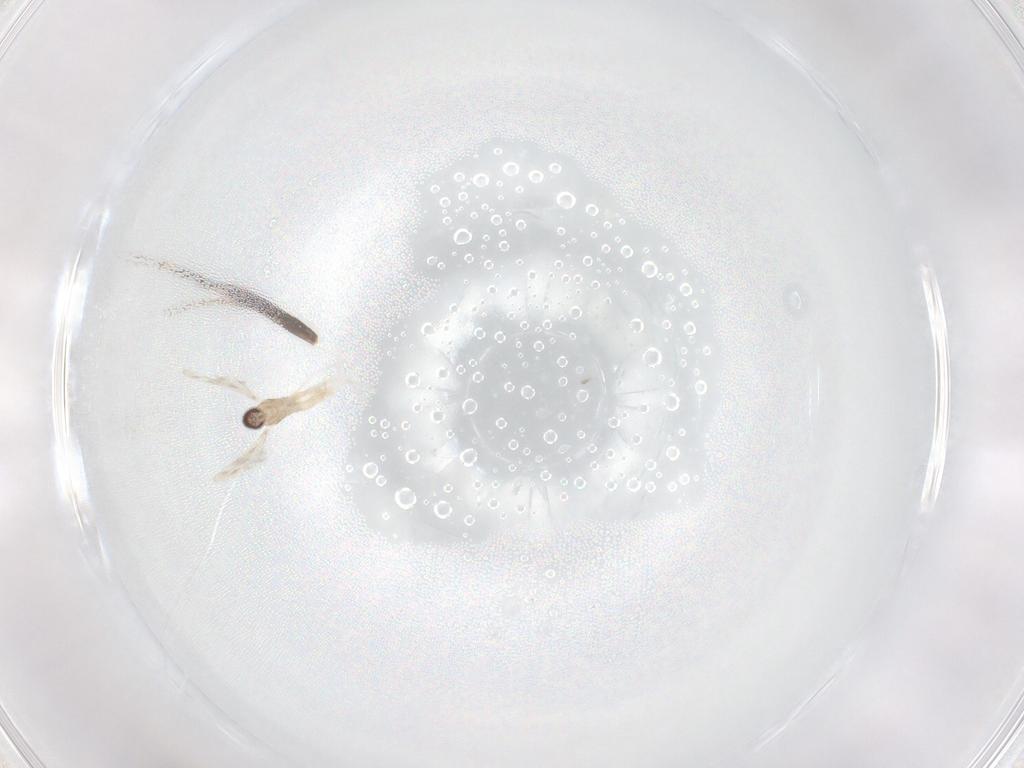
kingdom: Animalia
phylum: Arthropoda
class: Insecta
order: Diptera
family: Cecidomyiidae
